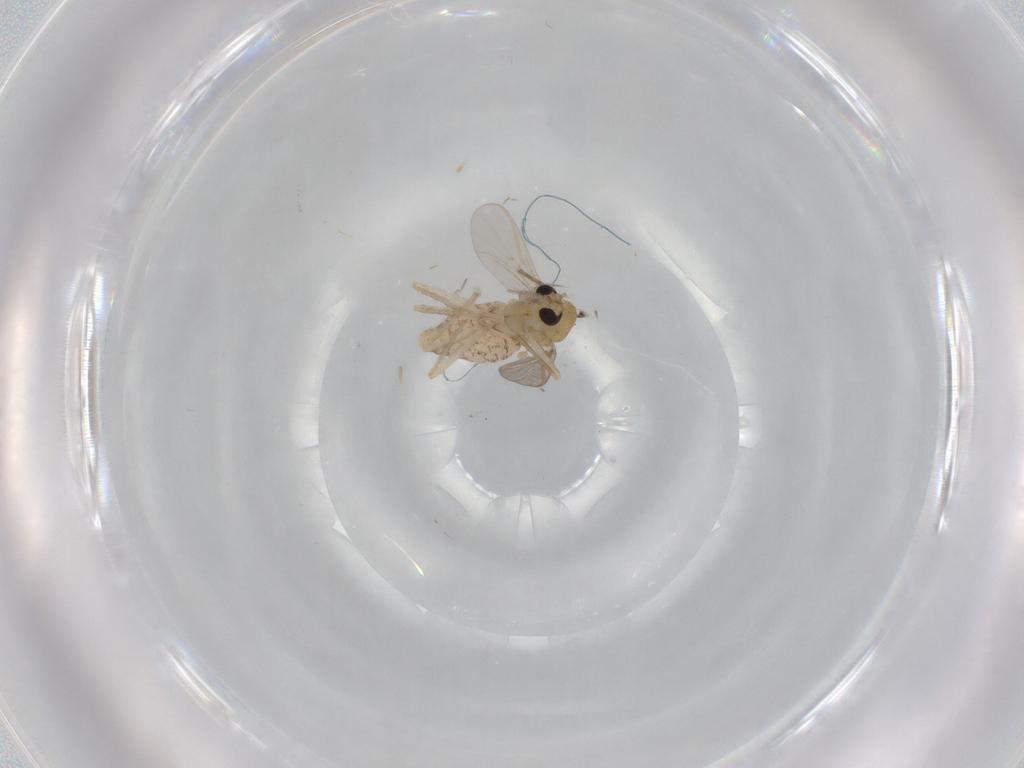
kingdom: Animalia
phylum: Arthropoda
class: Insecta
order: Diptera
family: Chironomidae
